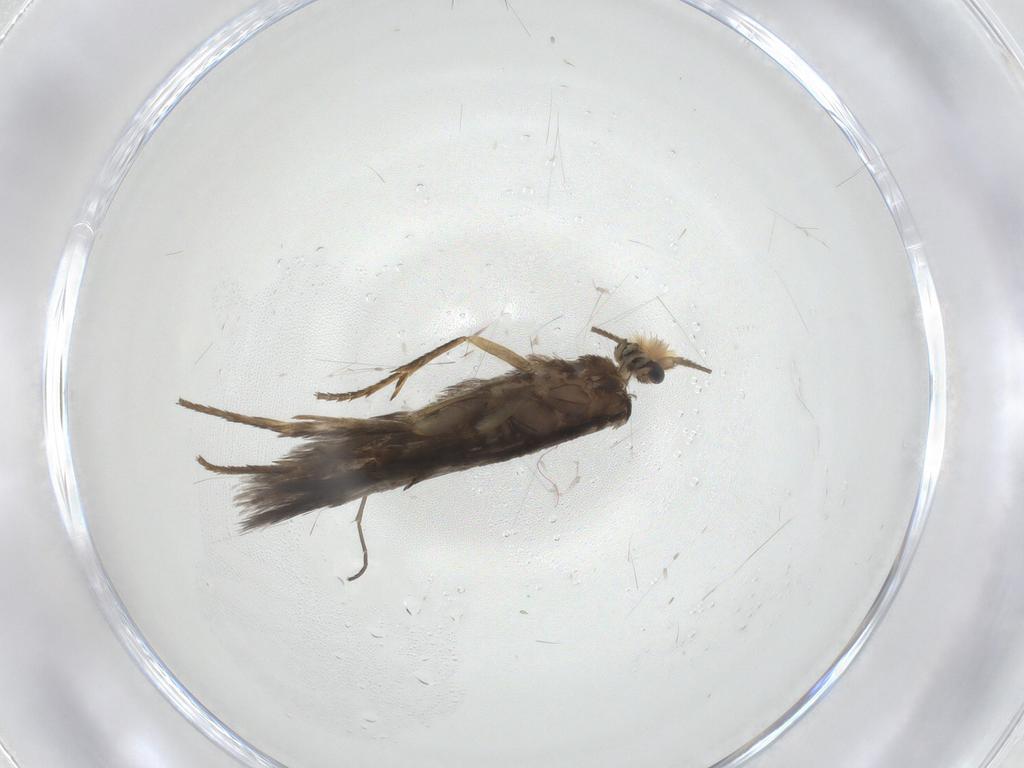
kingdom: Animalia
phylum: Arthropoda
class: Insecta
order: Lepidoptera
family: Nepticulidae
